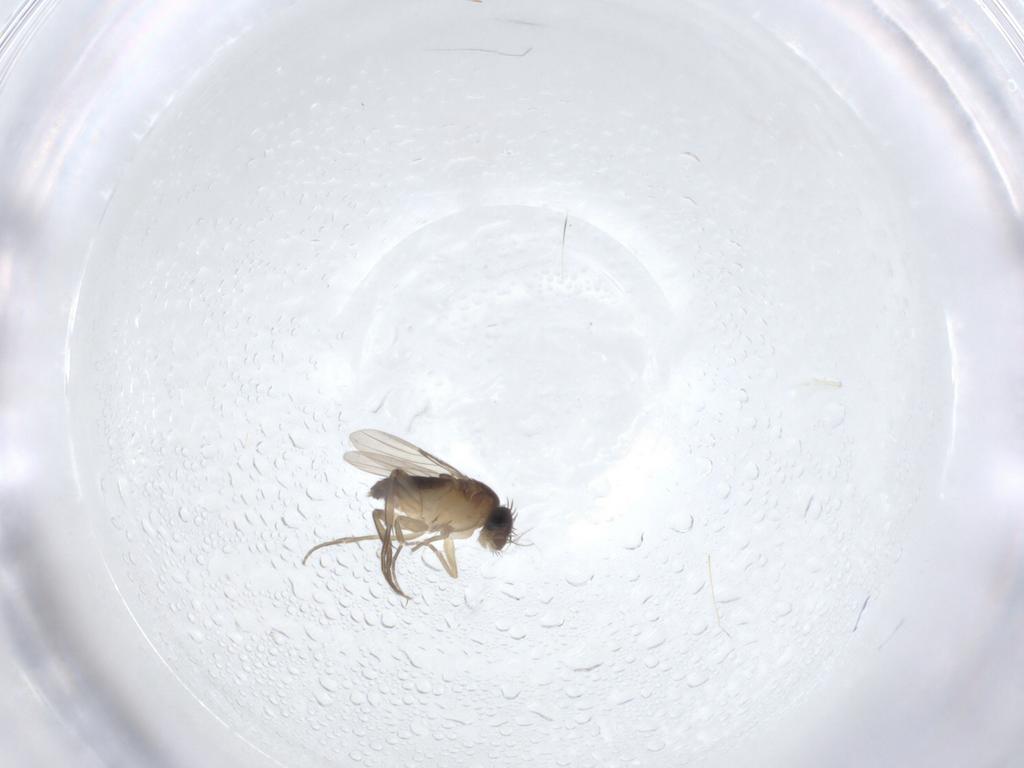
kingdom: Animalia
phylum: Arthropoda
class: Insecta
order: Diptera
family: Phoridae
